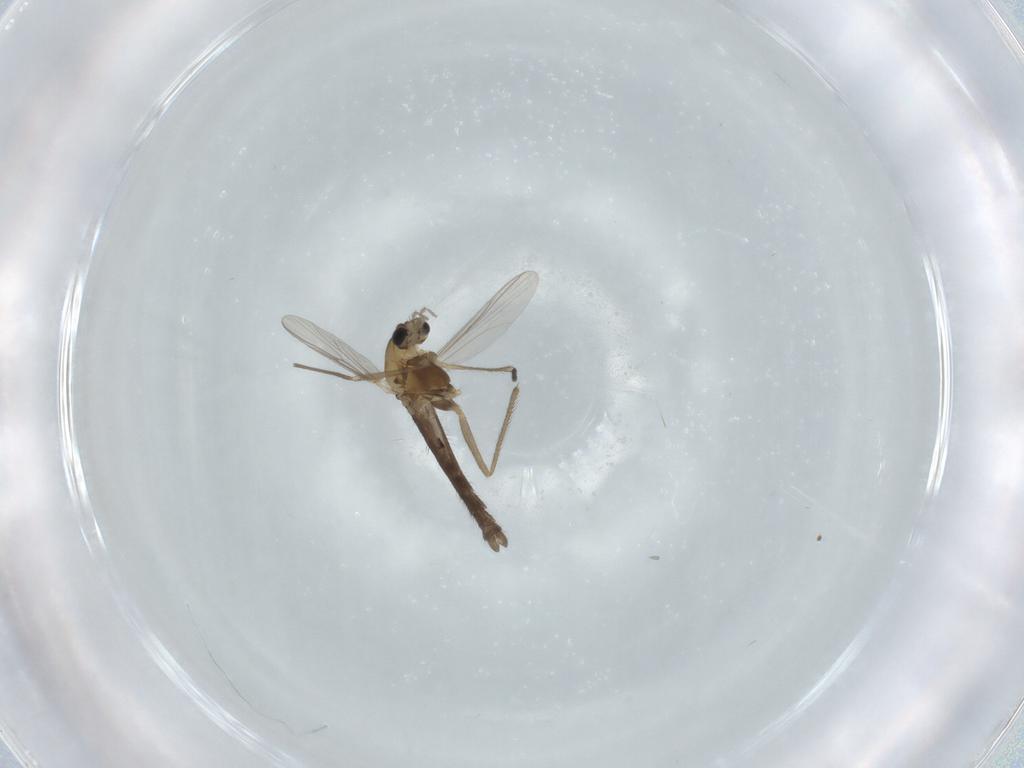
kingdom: Animalia
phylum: Arthropoda
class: Insecta
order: Diptera
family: Chironomidae
